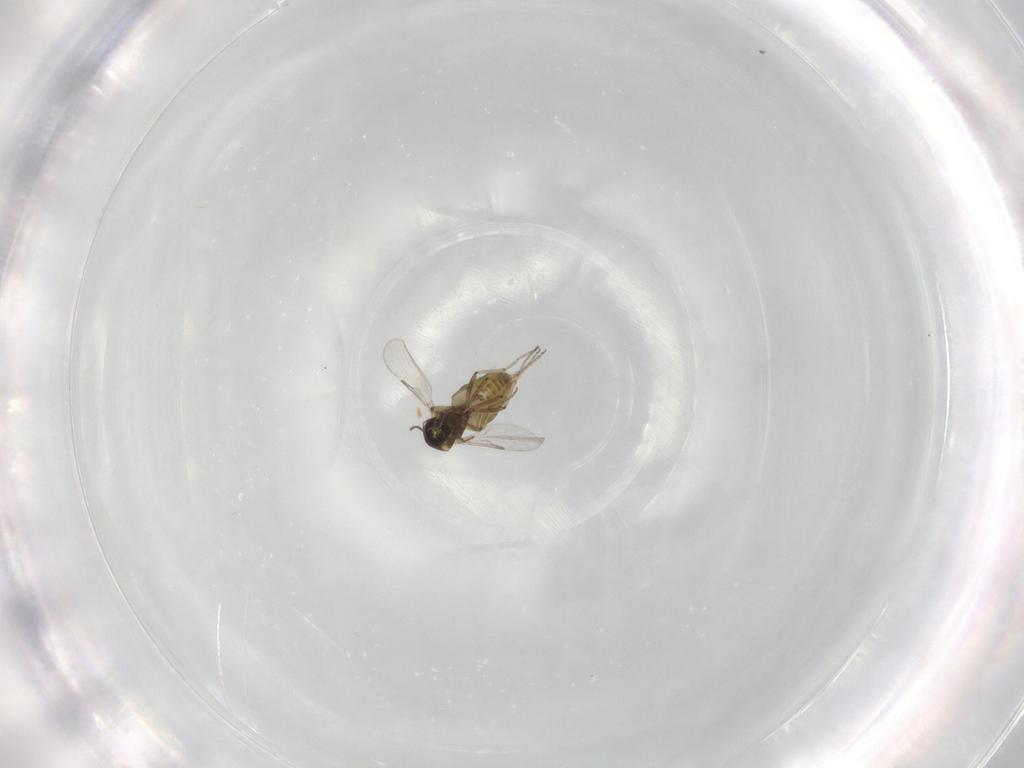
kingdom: Animalia
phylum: Arthropoda
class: Insecta
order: Diptera
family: Ceratopogonidae
